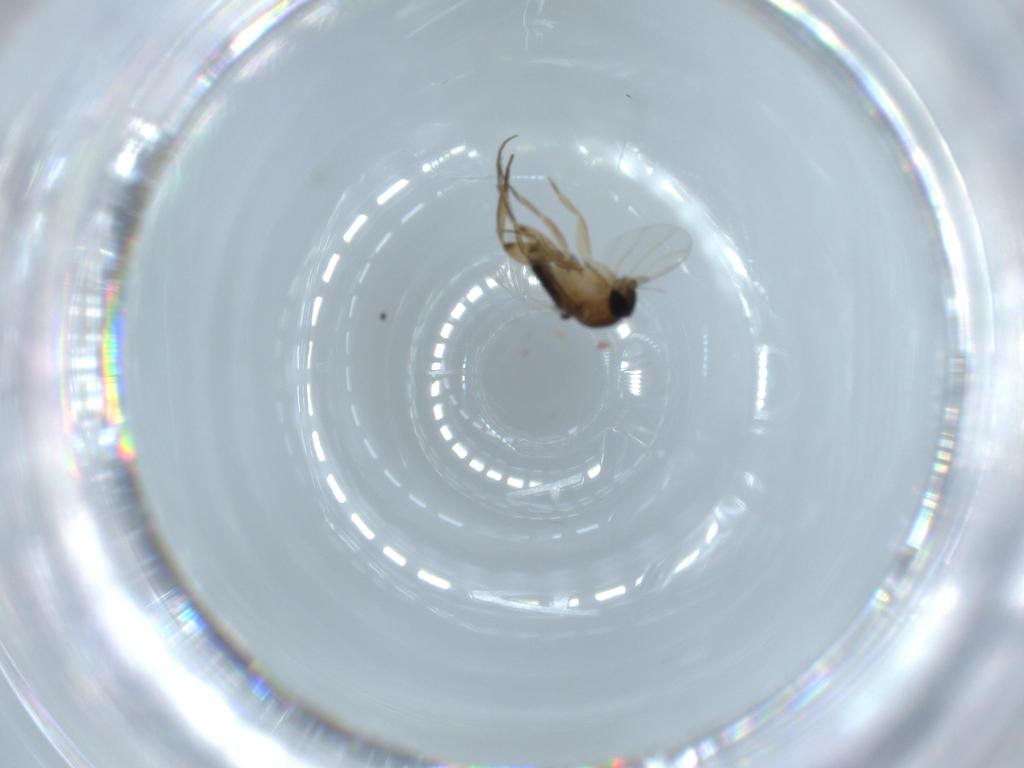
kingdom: Animalia
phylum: Arthropoda
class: Insecta
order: Diptera
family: Phoridae
